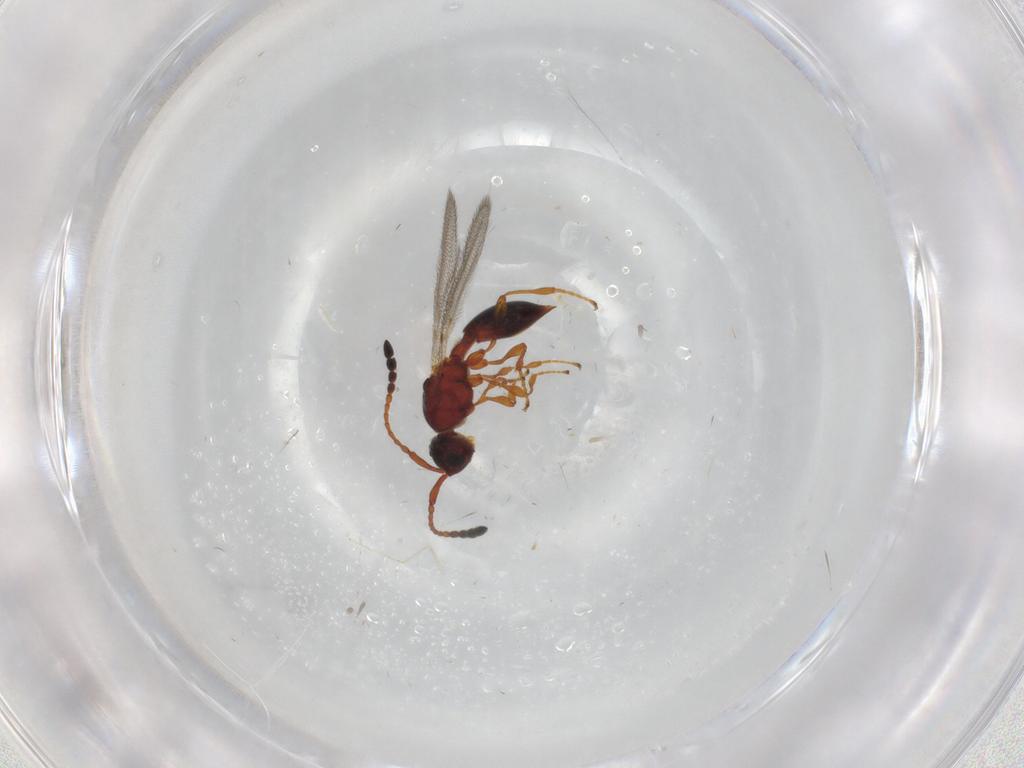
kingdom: Animalia
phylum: Arthropoda
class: Insecta
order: Hymenoptera
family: Diapriidae
